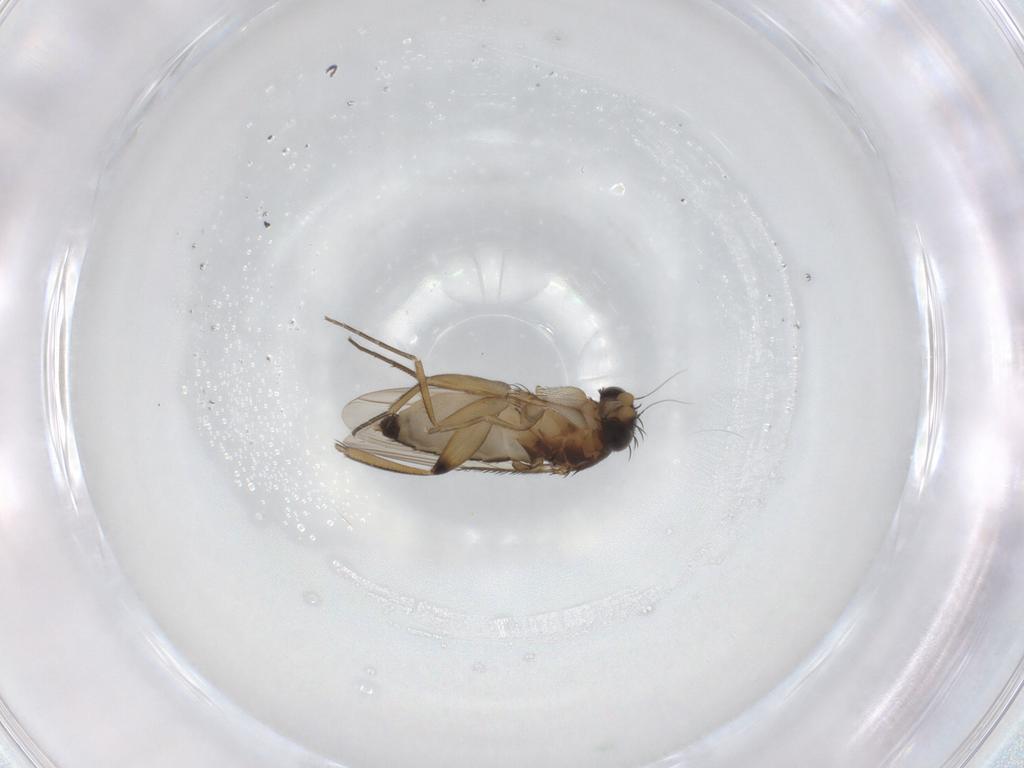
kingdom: Animalia
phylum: Arthropoda
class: Insecta
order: Diptera
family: Phoridae
